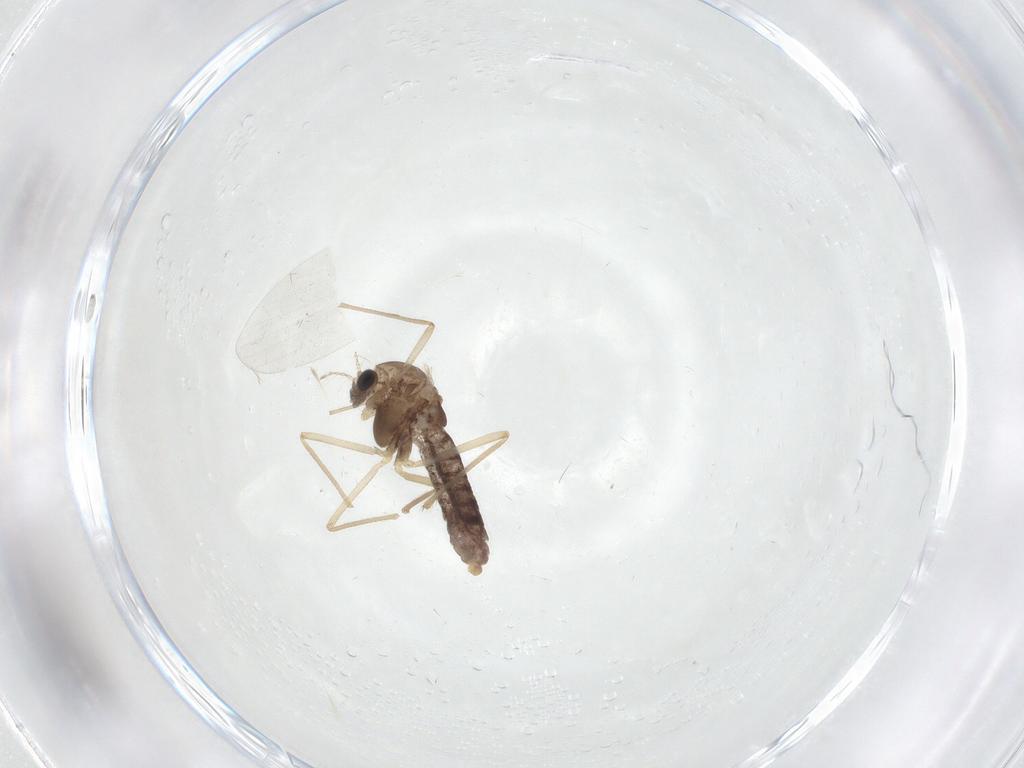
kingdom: Animalia
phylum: Arthropoda
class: Insecta
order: Diptera
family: Chironomidae
